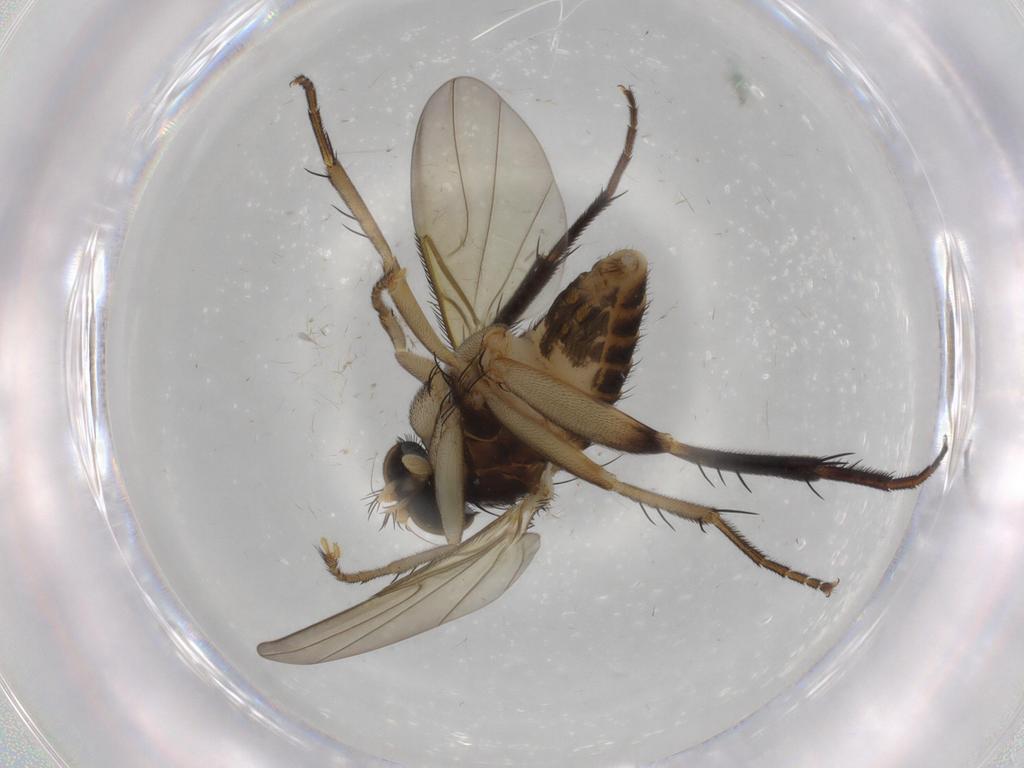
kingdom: Animalia
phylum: Arthropoda
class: Insecta
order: Diptera
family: Phoridae
